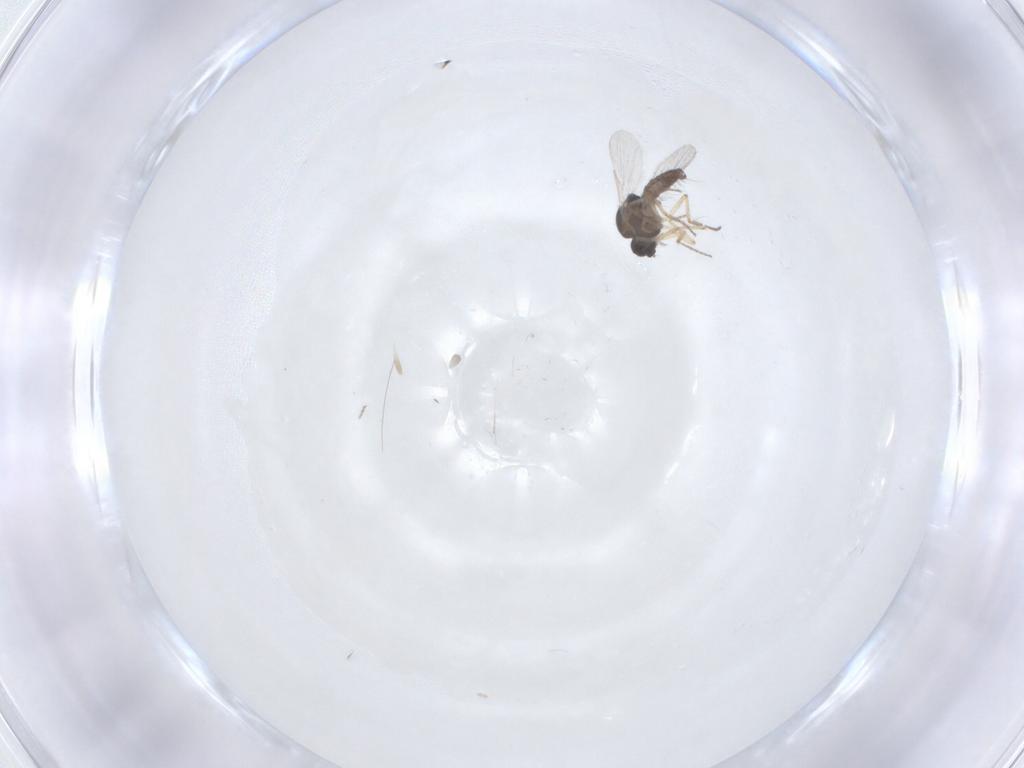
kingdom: Animalia
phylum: Arthropoda
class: Insecta
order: Diptera
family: Ceratopogonidae
